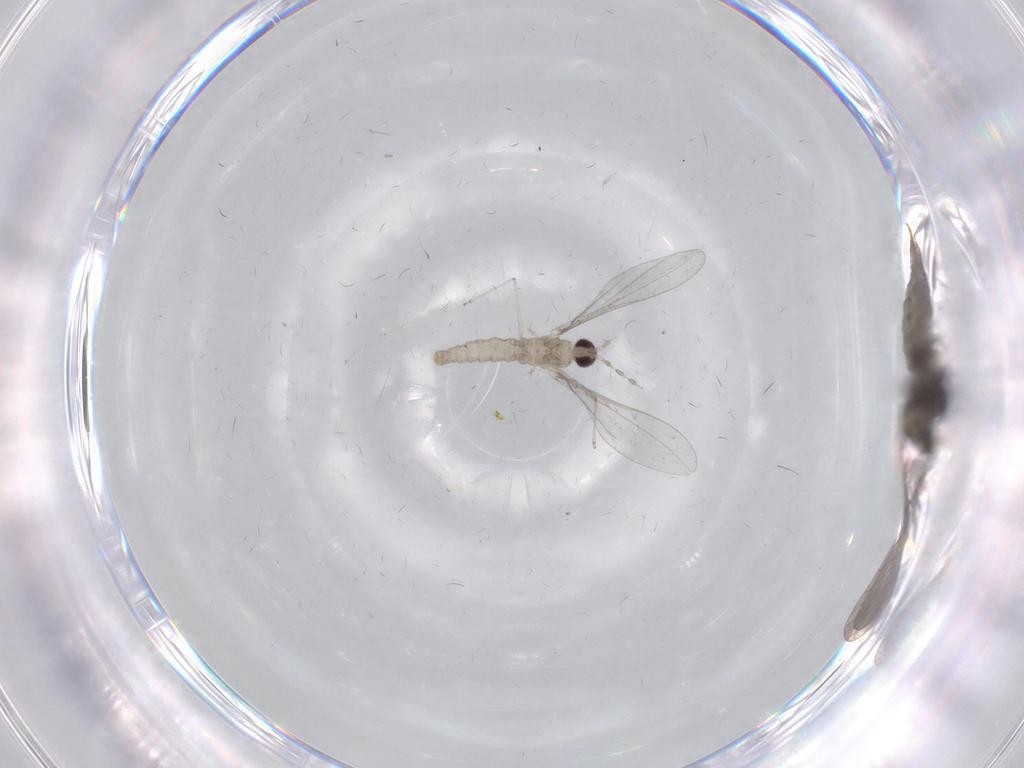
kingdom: Animalia
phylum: Arthropoda
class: Insecta
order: Diptera
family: Limoniidae
